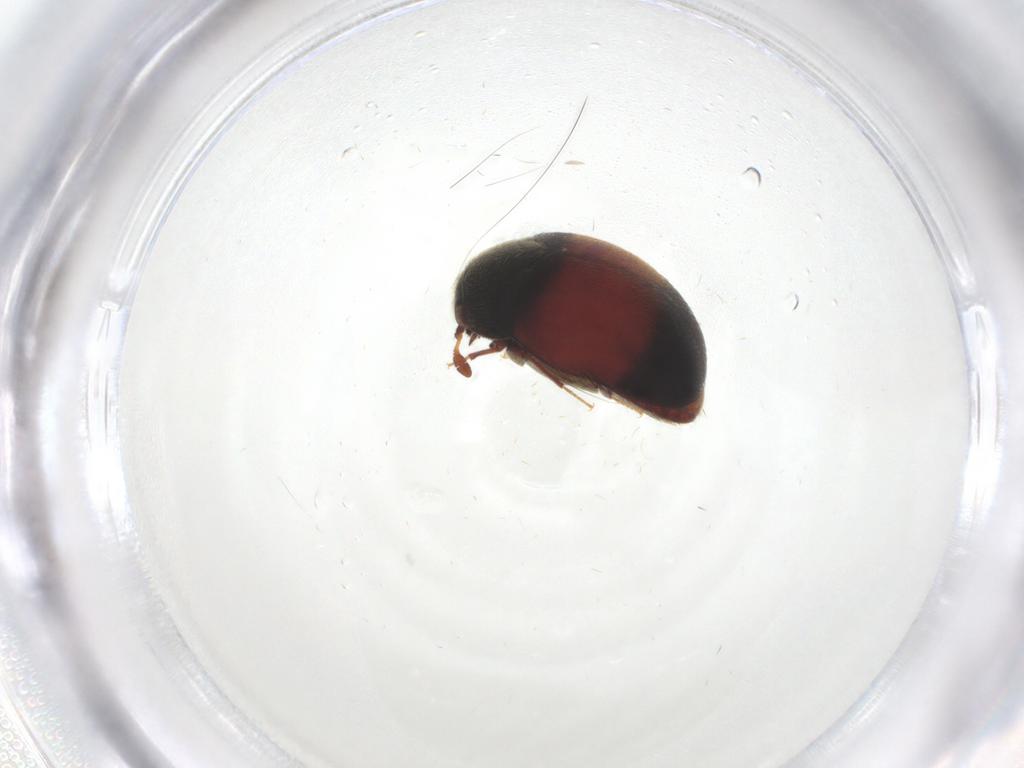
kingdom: Animalia
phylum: Arthropoda
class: Insecta
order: Coleoptera
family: Dermestidae
